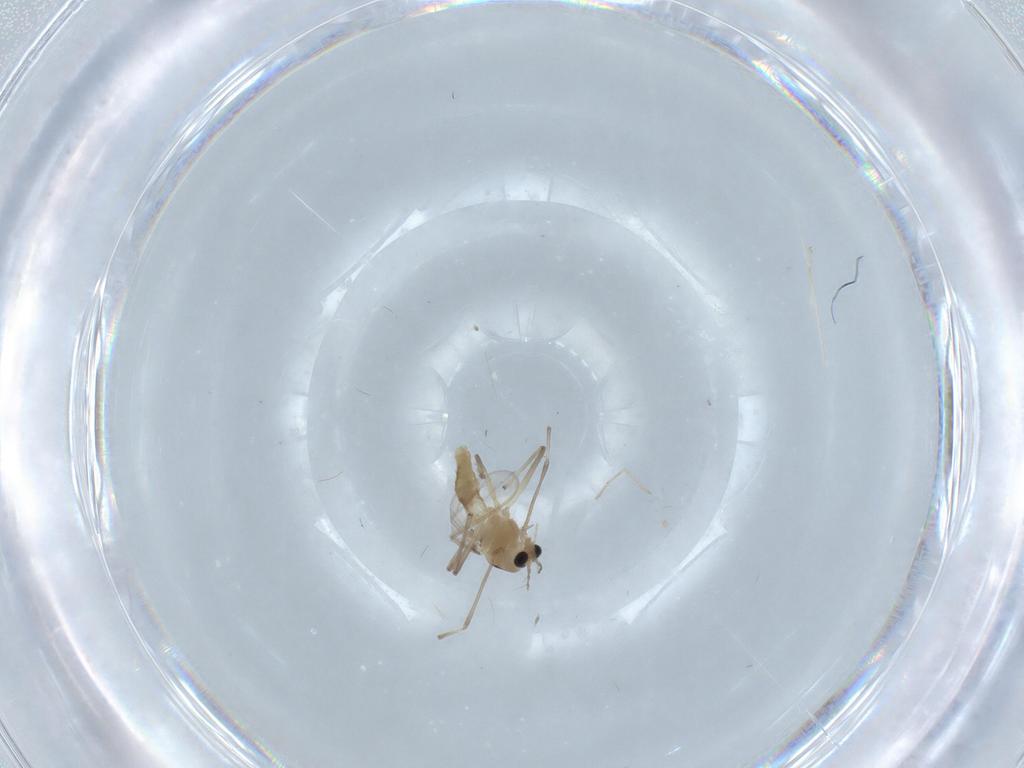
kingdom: Animalia
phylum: Arthropoda
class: Insecta
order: Diptera
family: Chironomidae
